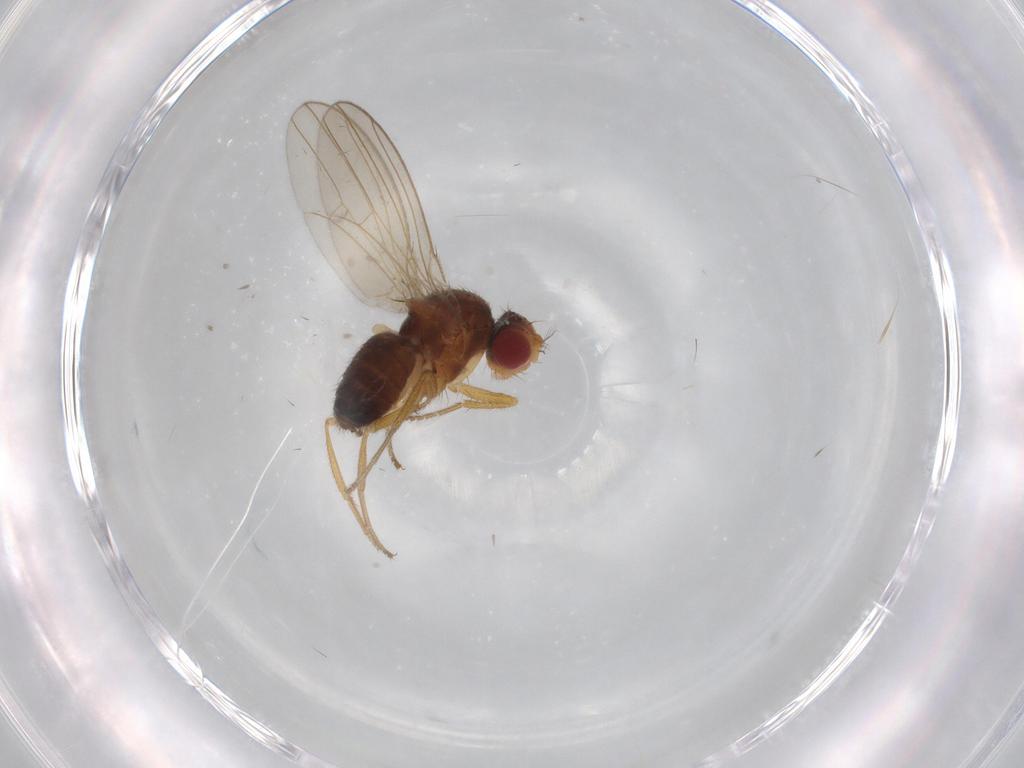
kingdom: Animalia
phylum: Arthropoda
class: Insecta
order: Diptera
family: Drosophilidae
